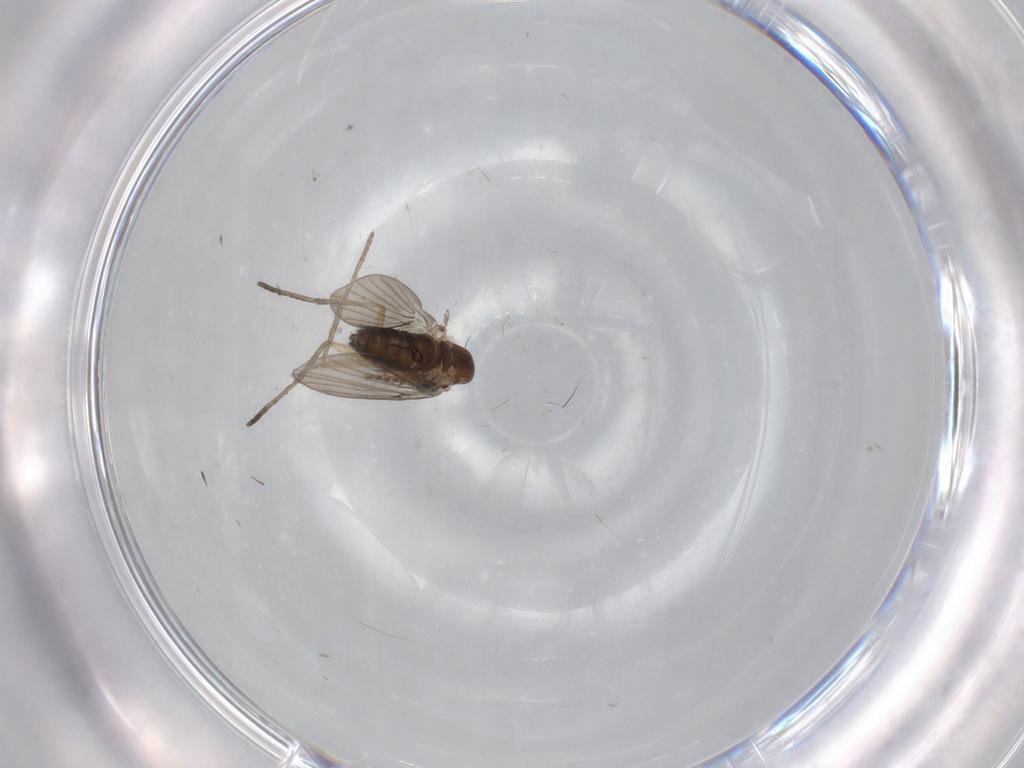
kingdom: Animalia
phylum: Arthropoda
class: Insecta
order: Diptera
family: Psychodidae
